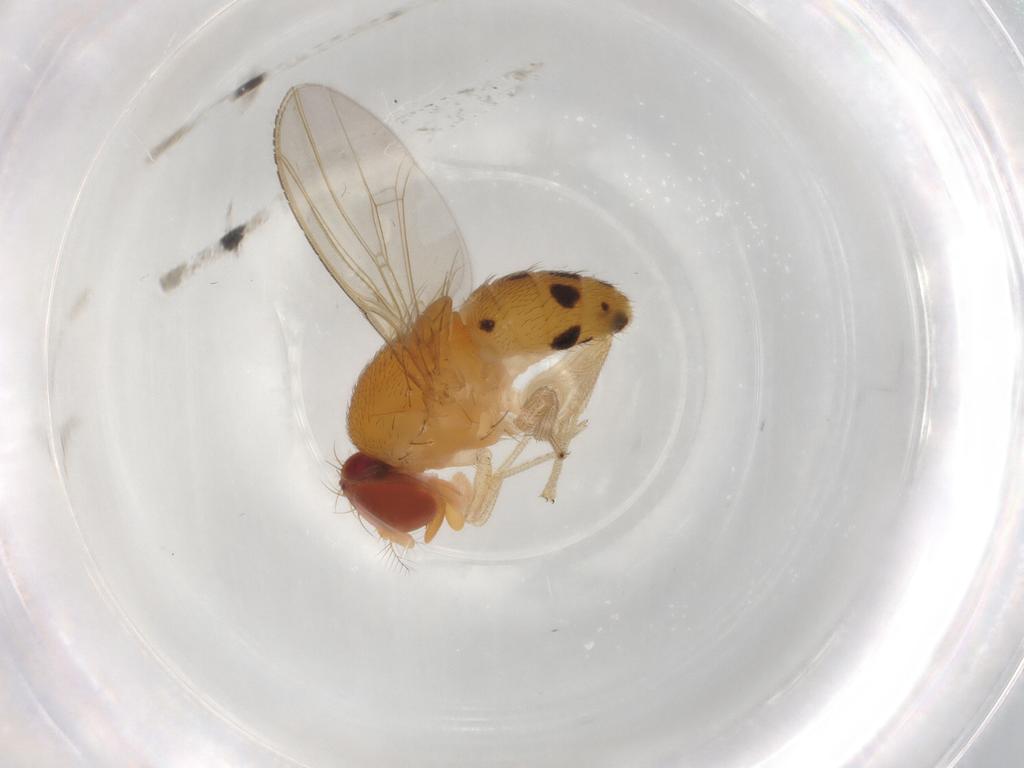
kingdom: Animalia
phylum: Arthropoda
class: Insecta
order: Diptera
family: Drosophilidae
